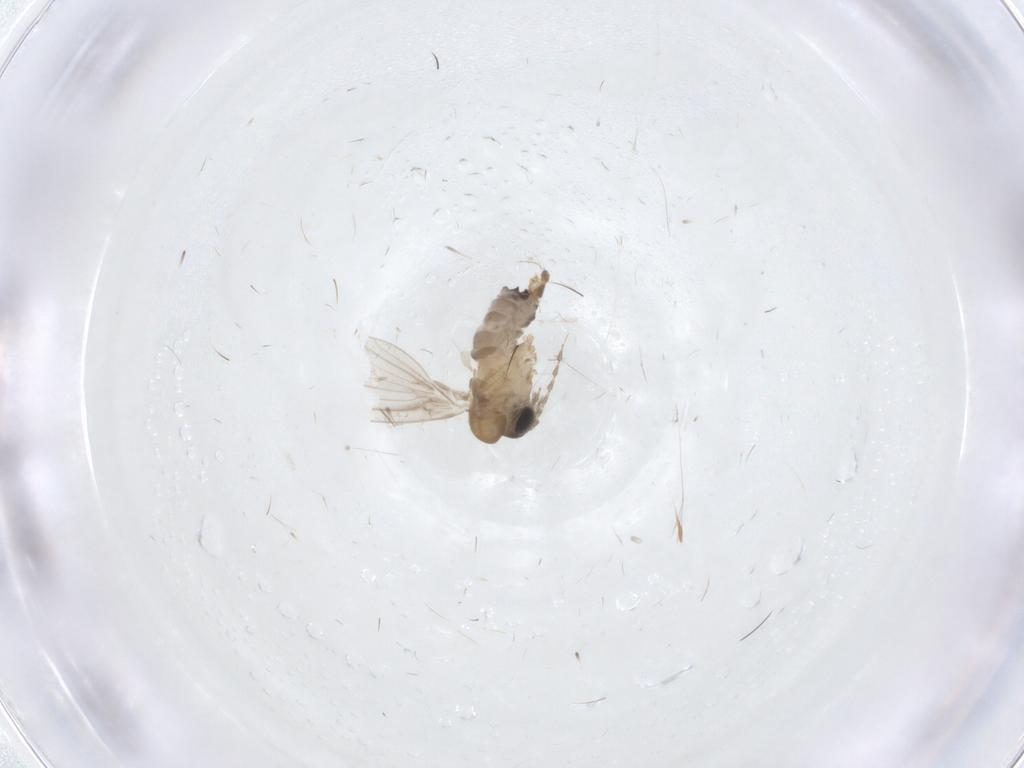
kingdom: Animalia
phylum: Arthropoda
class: Insecta
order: Diptera
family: Psychodidae
